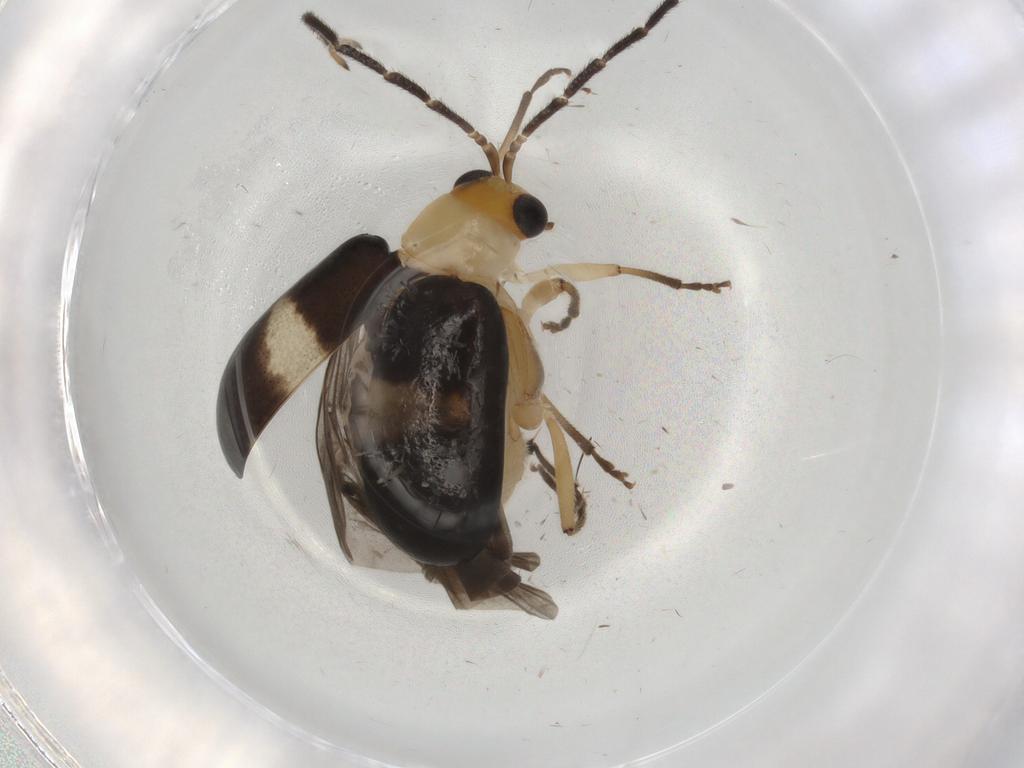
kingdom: Animalia
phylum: Arthropoda
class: Insecta
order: Coleoptera
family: Chrysomelidae
